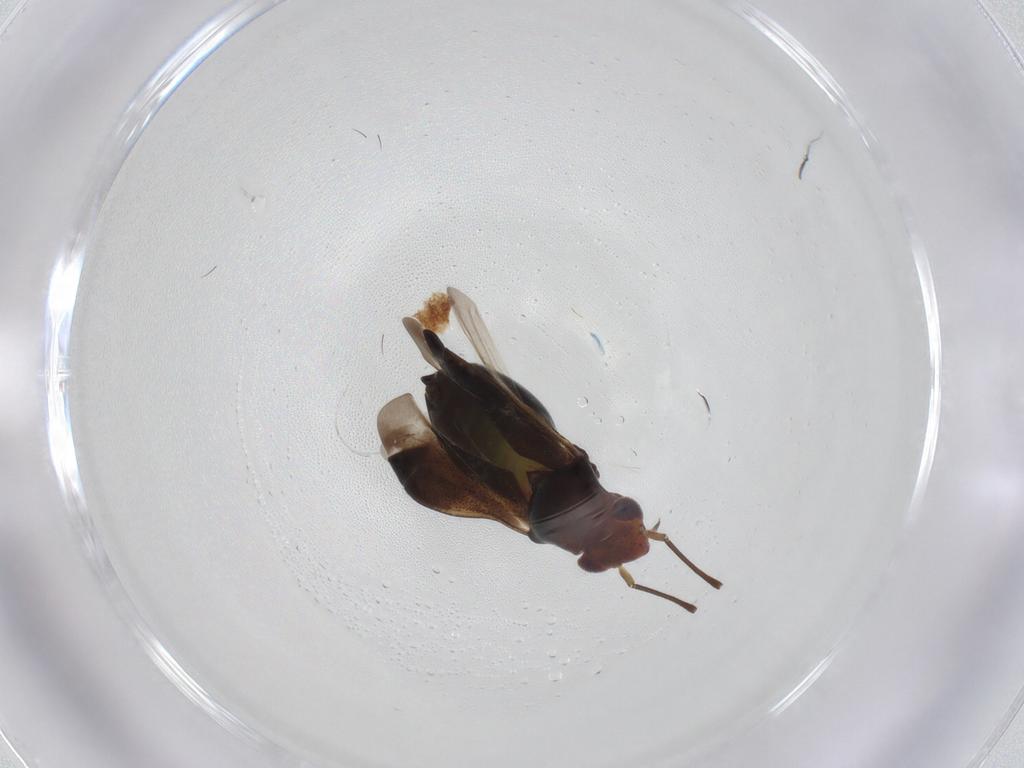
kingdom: Animalia
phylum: Arthropoda
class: Insecta
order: Hemiptera
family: Miridae
